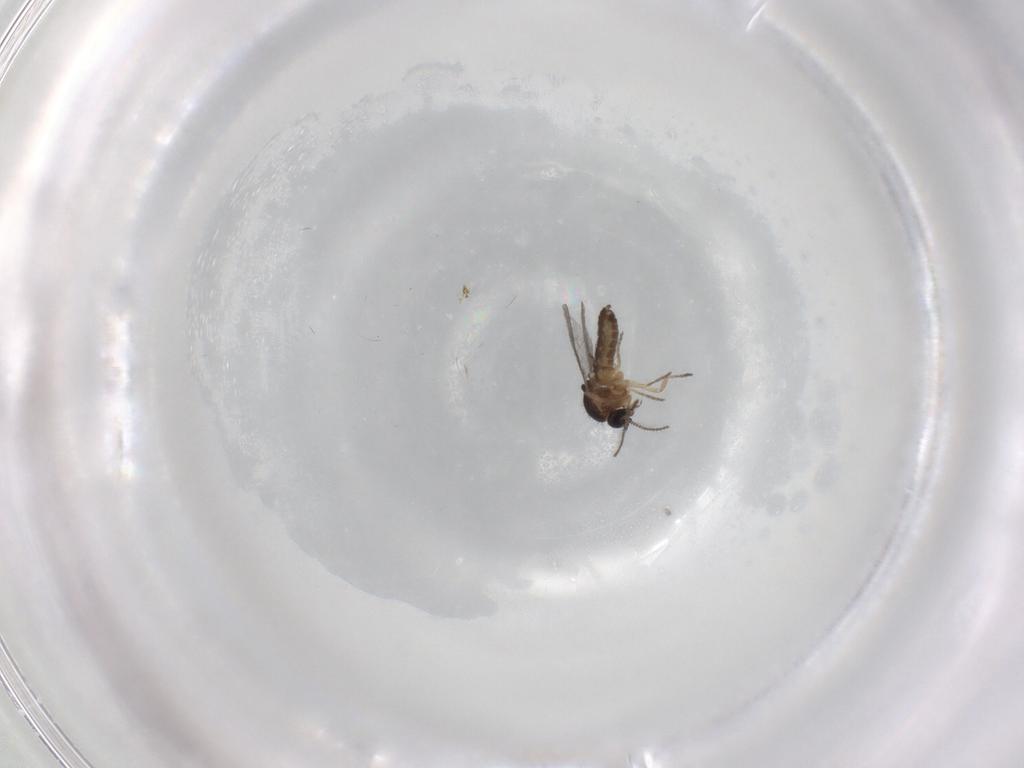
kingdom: Animalia
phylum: Arthropoda
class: Insecta
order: Diptera
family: Ceratopogonidae
